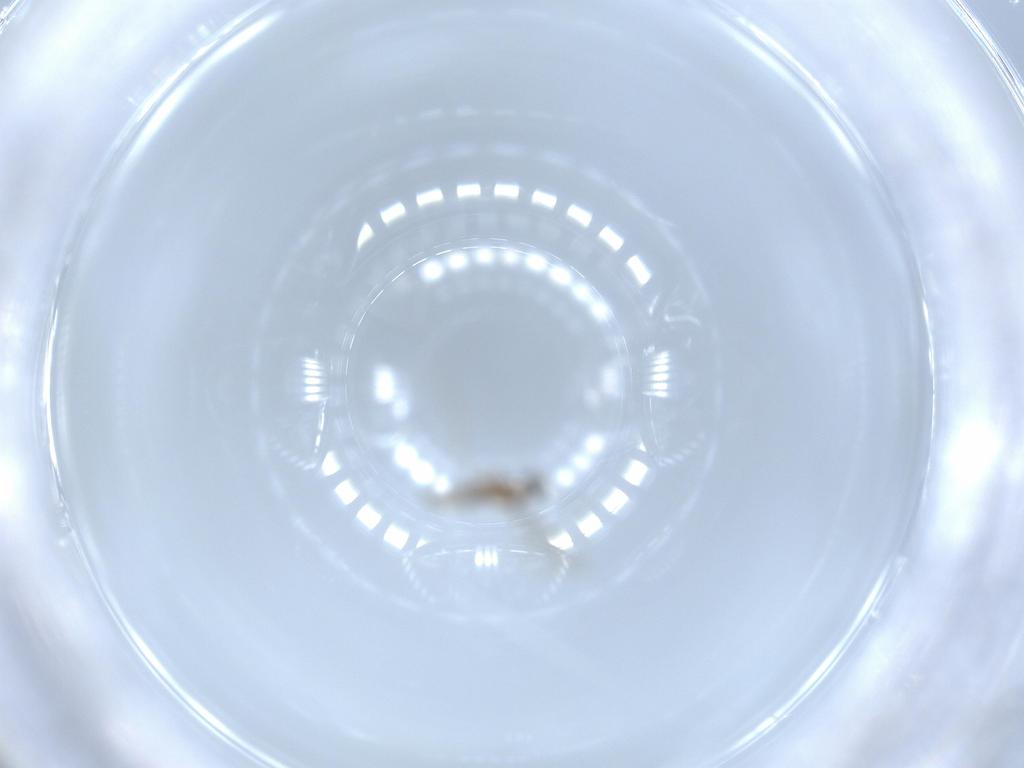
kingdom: Animalia
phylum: Arthropoda
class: Insecta
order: Diptera
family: Cecidomyiidae
